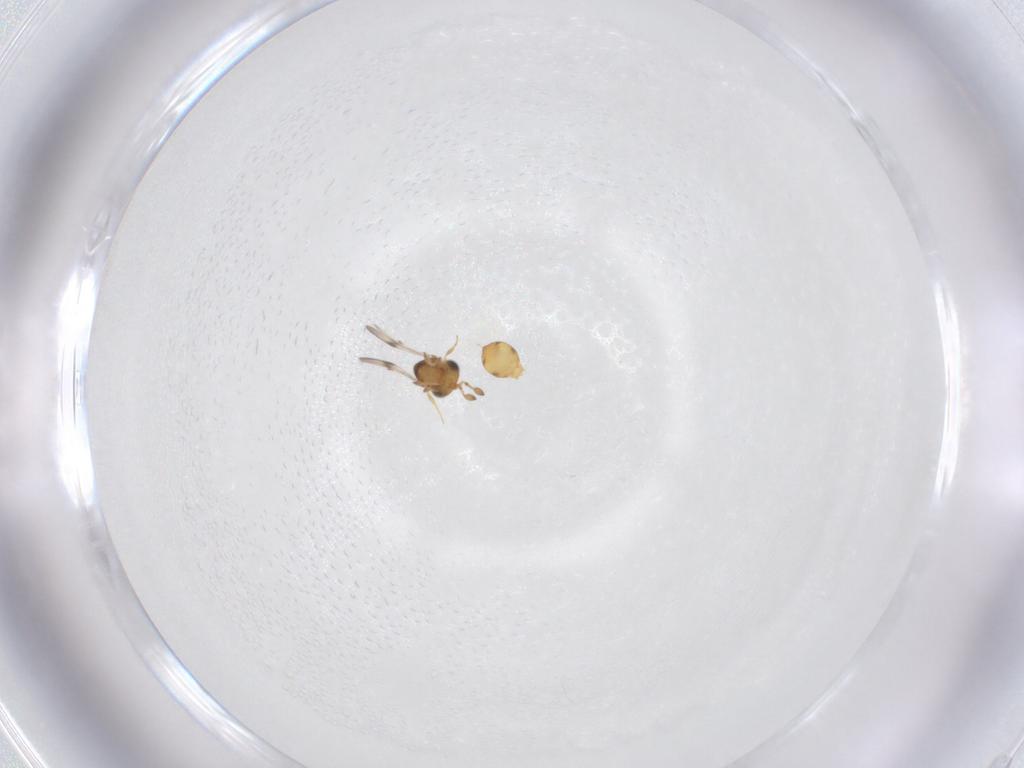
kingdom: Animalia
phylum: Arthropoda
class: Insecta
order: Hymenoptera
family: Scelionidae
